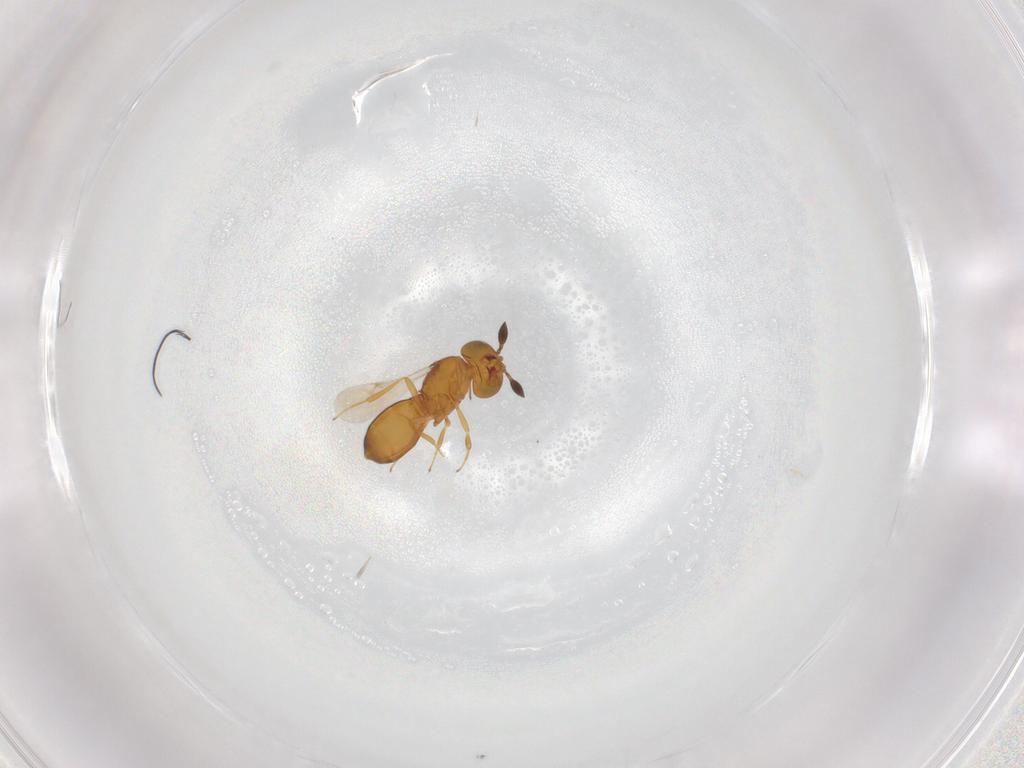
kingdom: Animalia
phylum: Arthropoda
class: Insecta
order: Hymenoptera
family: Scelionidae
